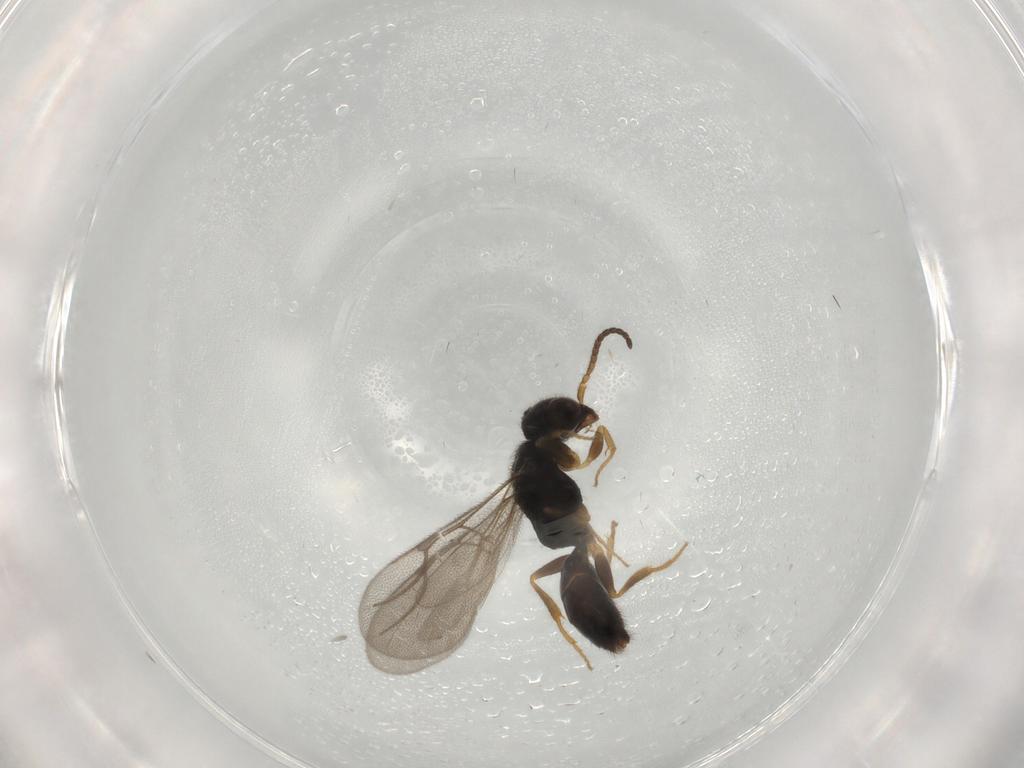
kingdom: Animalia
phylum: Arthropoda
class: Insecta
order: Hymenoptera
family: Bethylidae
